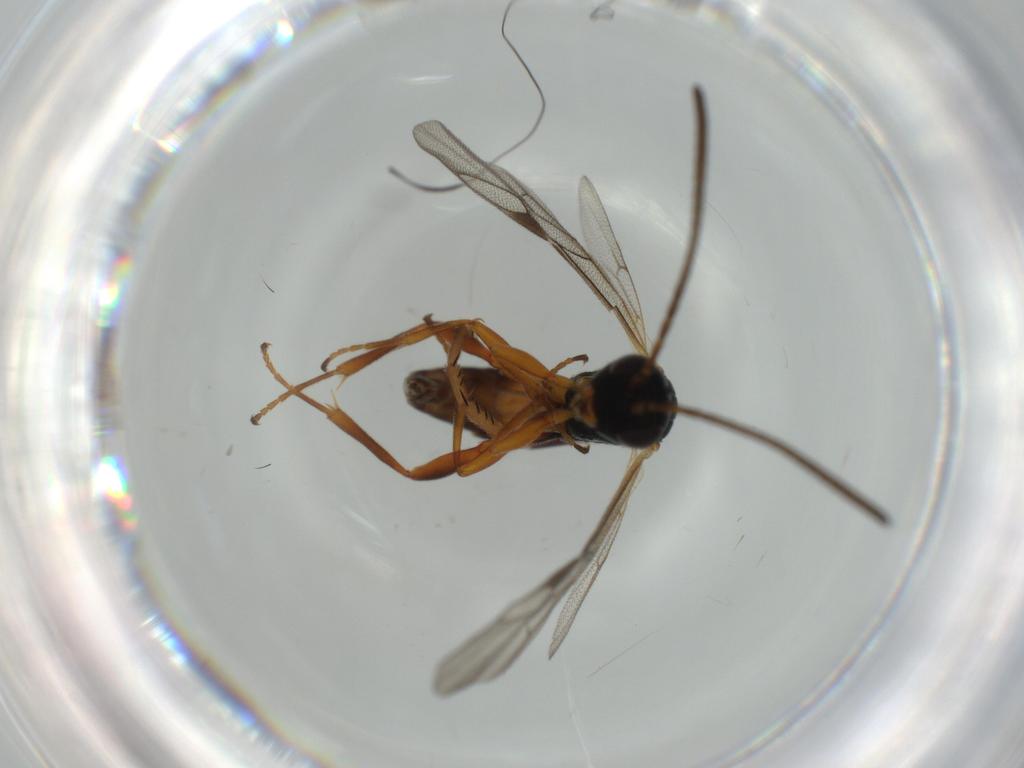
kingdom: Animalia
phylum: Arthropoda
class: Insecta
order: Hymenoptera
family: Ichneumonidae
